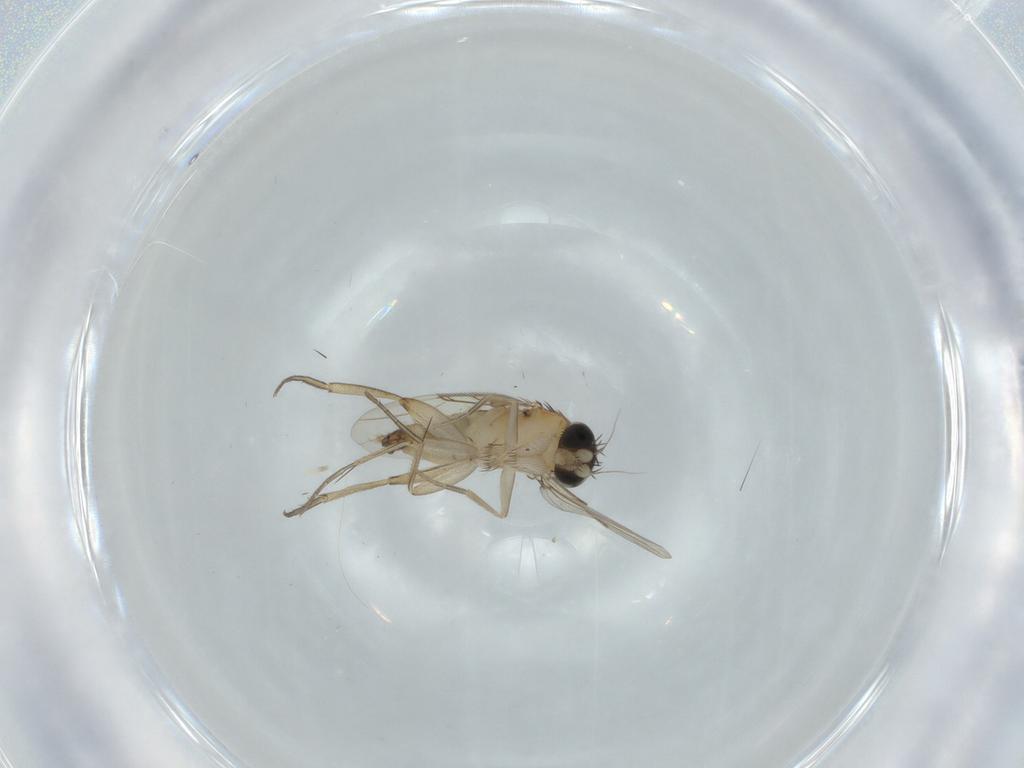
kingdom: Animalia
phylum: Arthropoda
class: Insecta
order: Diptera
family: Phoridae
